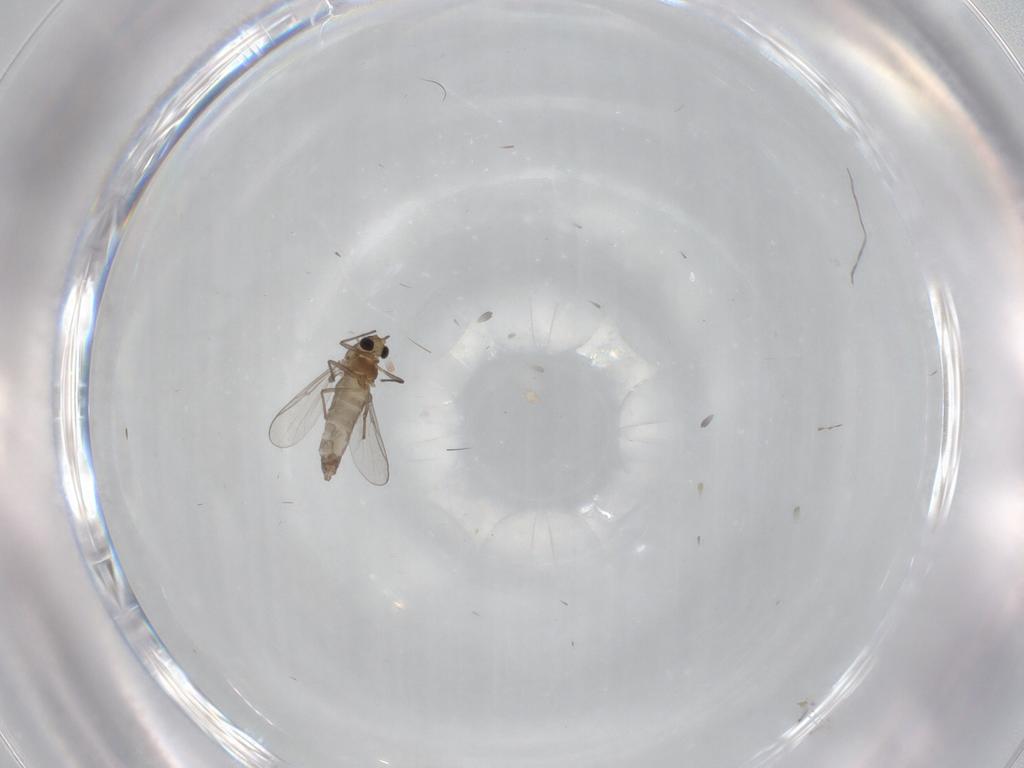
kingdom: Animalia
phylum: Arthropoda
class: Insecta
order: Diptera
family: Chironomidae
